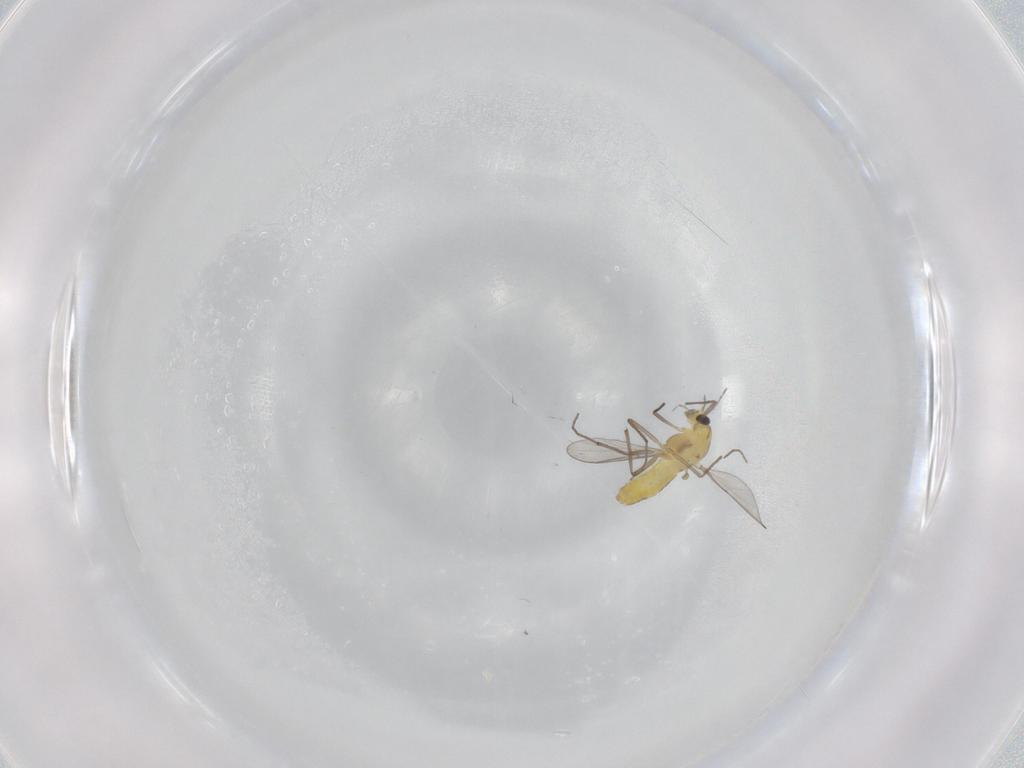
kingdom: Animalia
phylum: Arthropoda
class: Insecta
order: Diptera
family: Chironomidae
